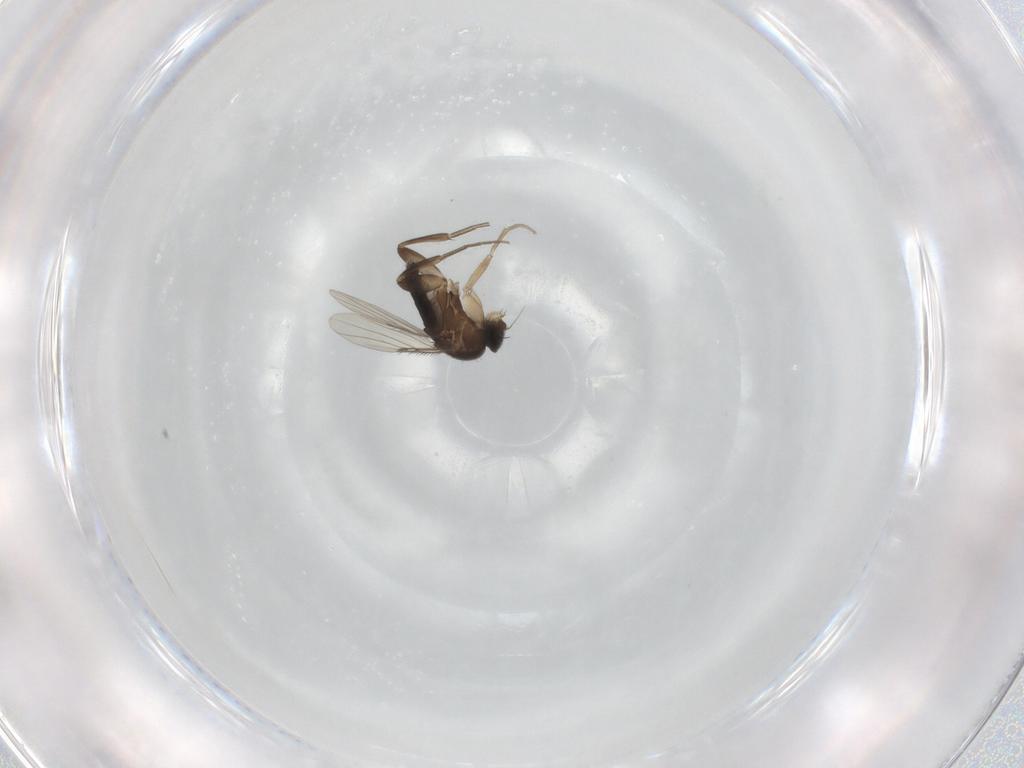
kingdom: Animalia
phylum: Arthropoda
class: Insecta
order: Diptera
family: Phoridae
